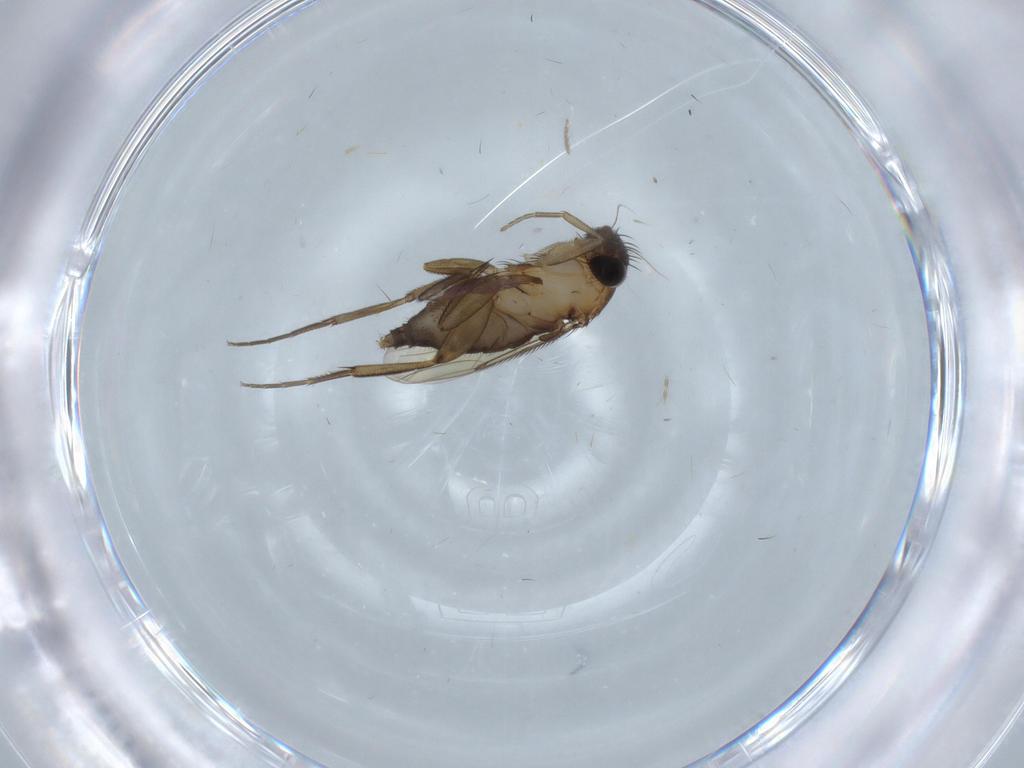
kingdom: Animalia
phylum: Arthropoda
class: Insecta
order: Diptera
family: Phoridae
